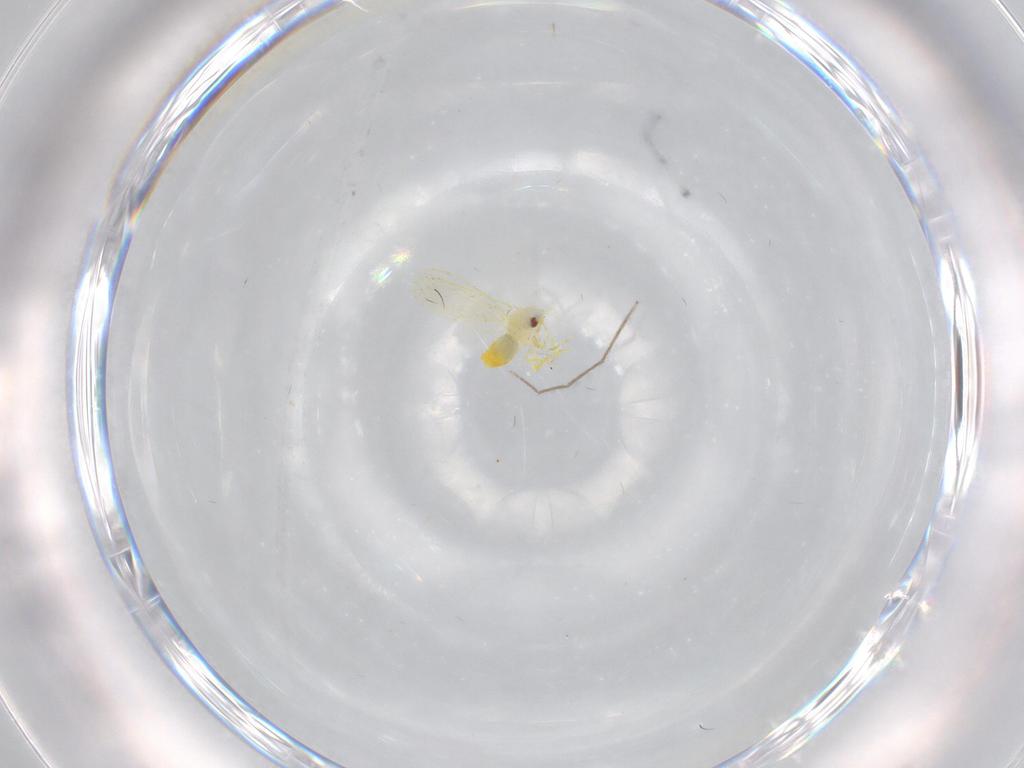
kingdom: Animalia
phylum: Arthropoda
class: Insecta
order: Hemiptera
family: Aleyrodidae
